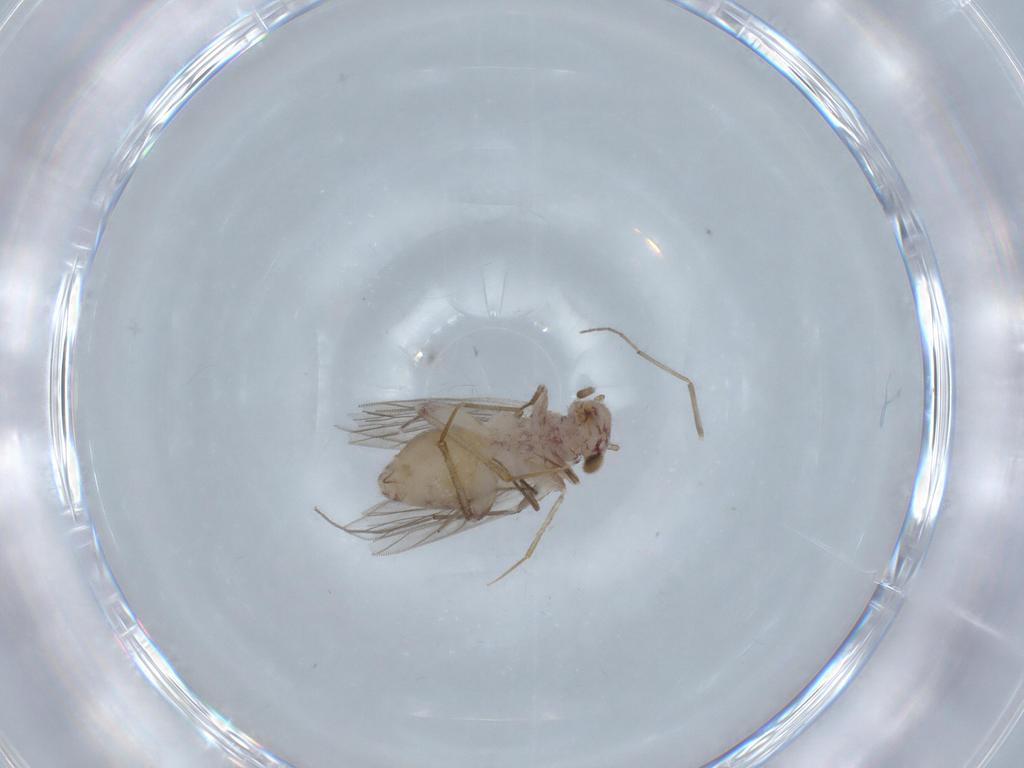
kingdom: Animalia
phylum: Arthropoda
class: Insecta
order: Psocodea
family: Lepidopsocidae
